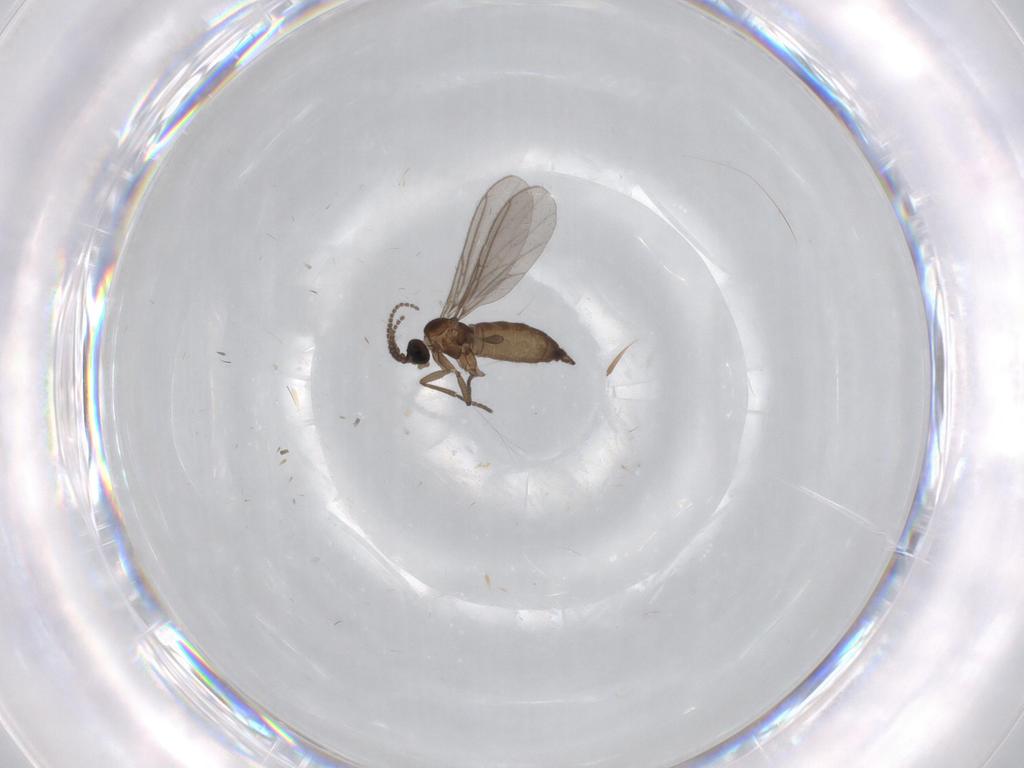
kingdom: Animalia
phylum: Arthropoda
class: Insecta
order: Diptera
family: Sciaridae
